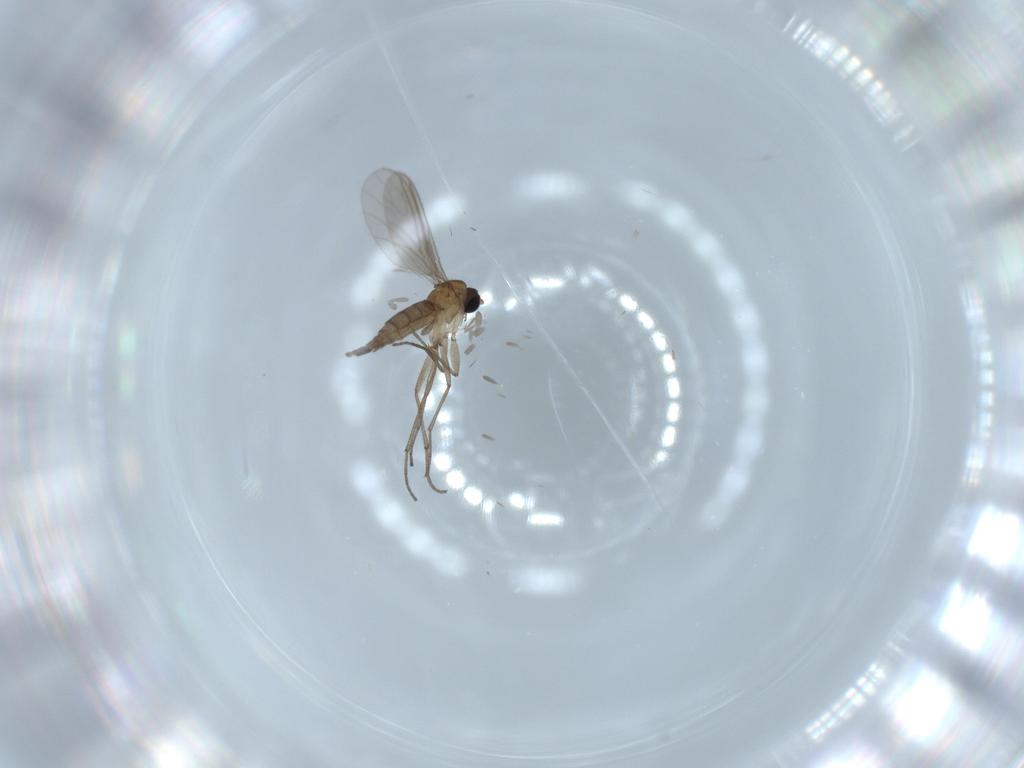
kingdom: Animalia
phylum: Arthropoda
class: Insecta
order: Diptera
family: Sciaridae
